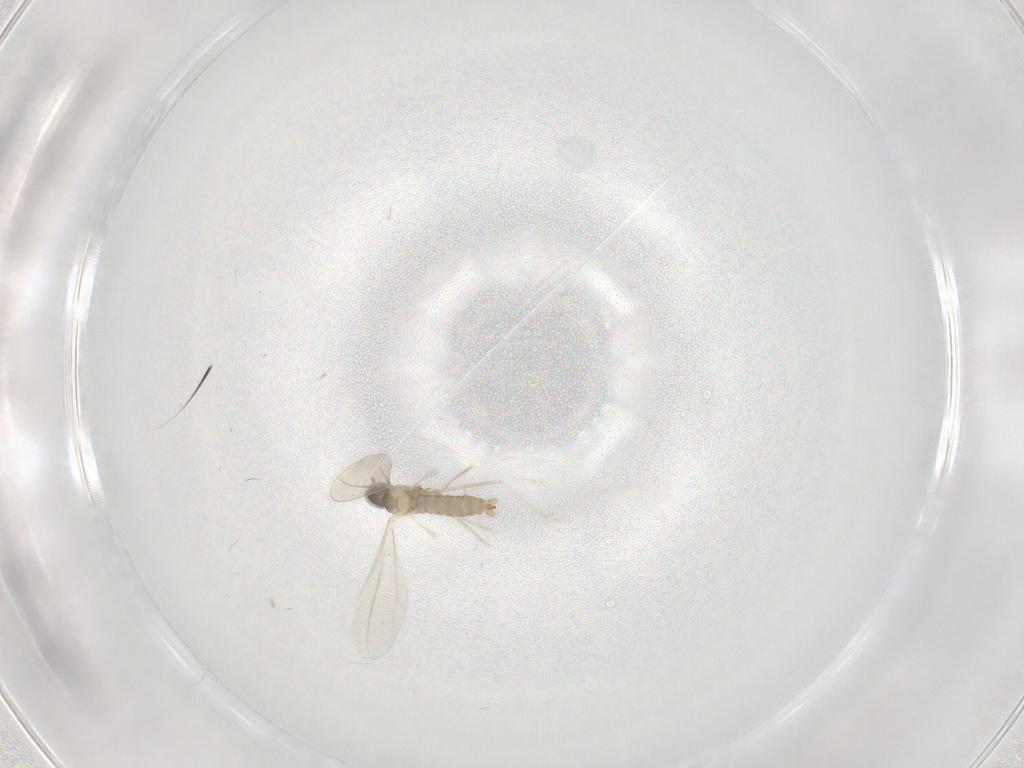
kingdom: Animalia
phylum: Arthropoda
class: Insecta
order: Diptera
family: Cecidomyiidae
